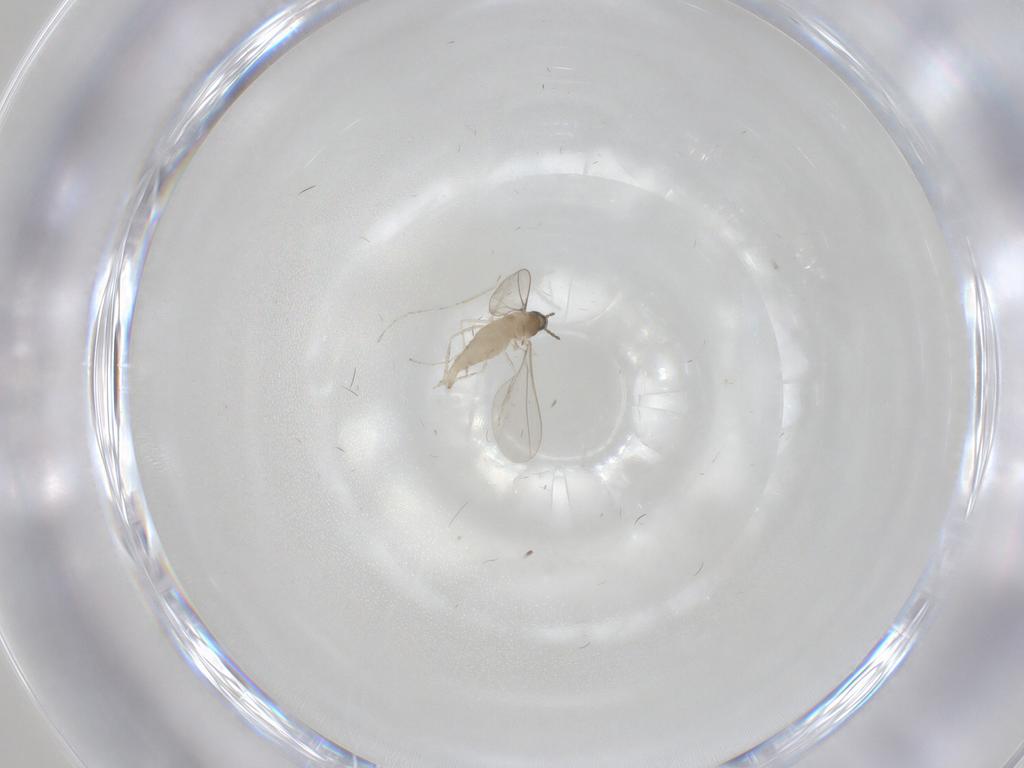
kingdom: Animalia
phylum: Arthropoda
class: Insecta
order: Diptera
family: Cecidomyiidae
